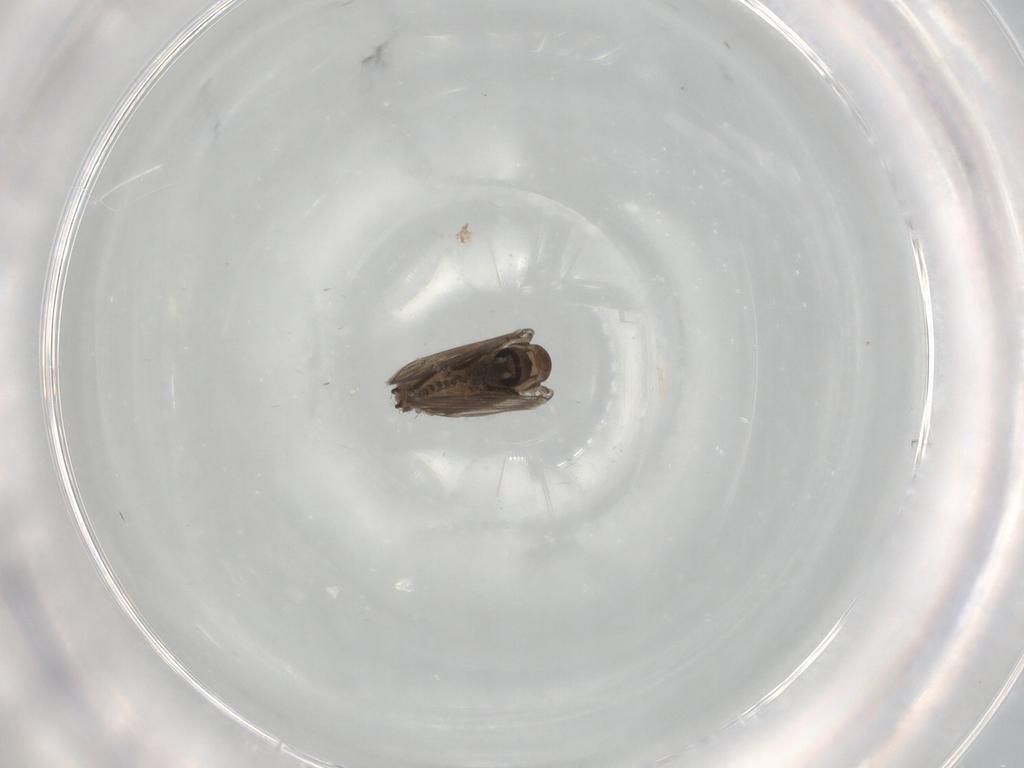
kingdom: Animalia
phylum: Arthropoda
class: Insecta
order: Diptera
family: Psychodidae
